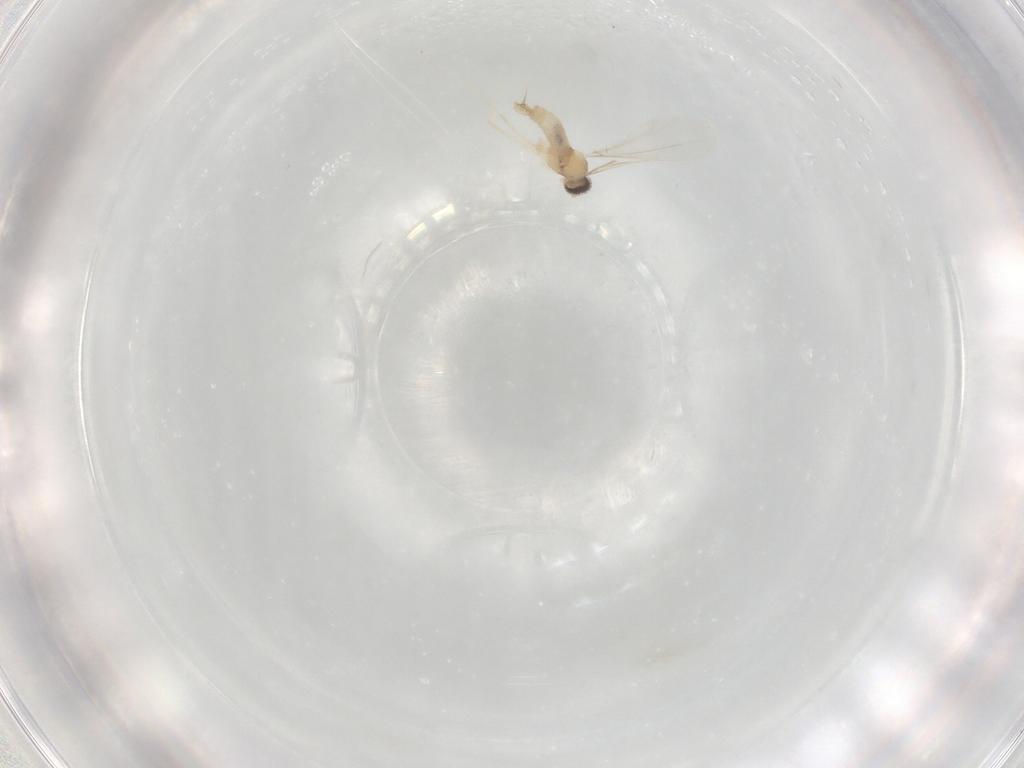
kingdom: Animalia
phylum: Arthropoda
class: Insecta
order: Diptera
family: Cecidomyiidae
